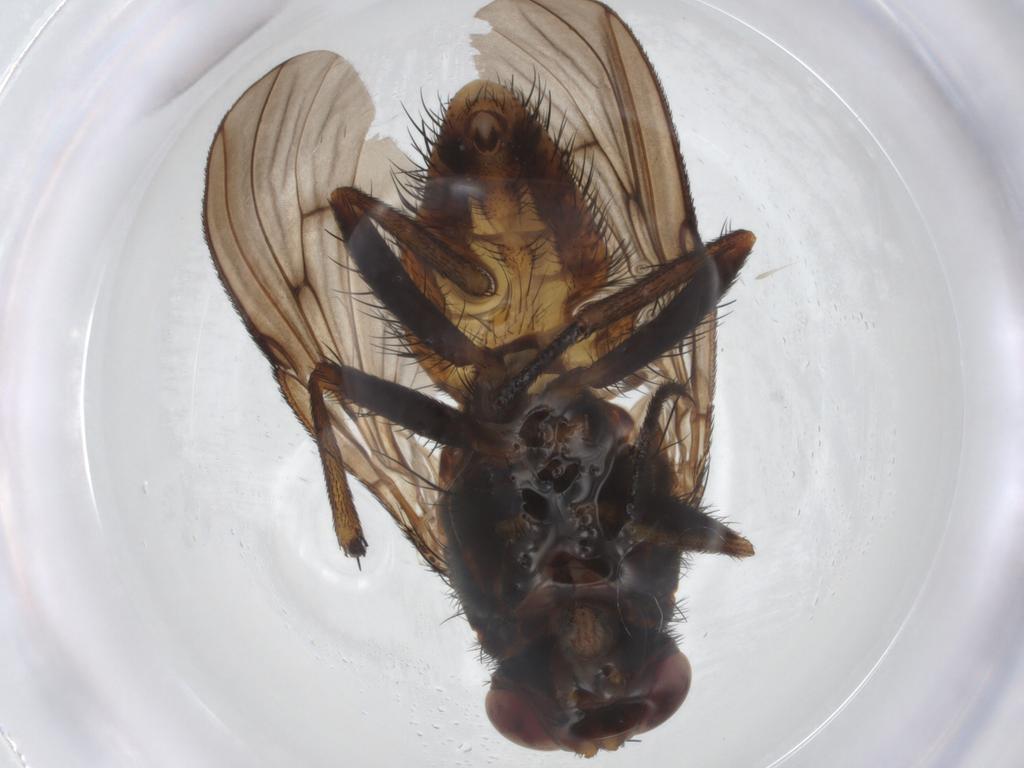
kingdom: Animalia
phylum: Arthropoda
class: Insecta
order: Diptera
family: Muscidae
